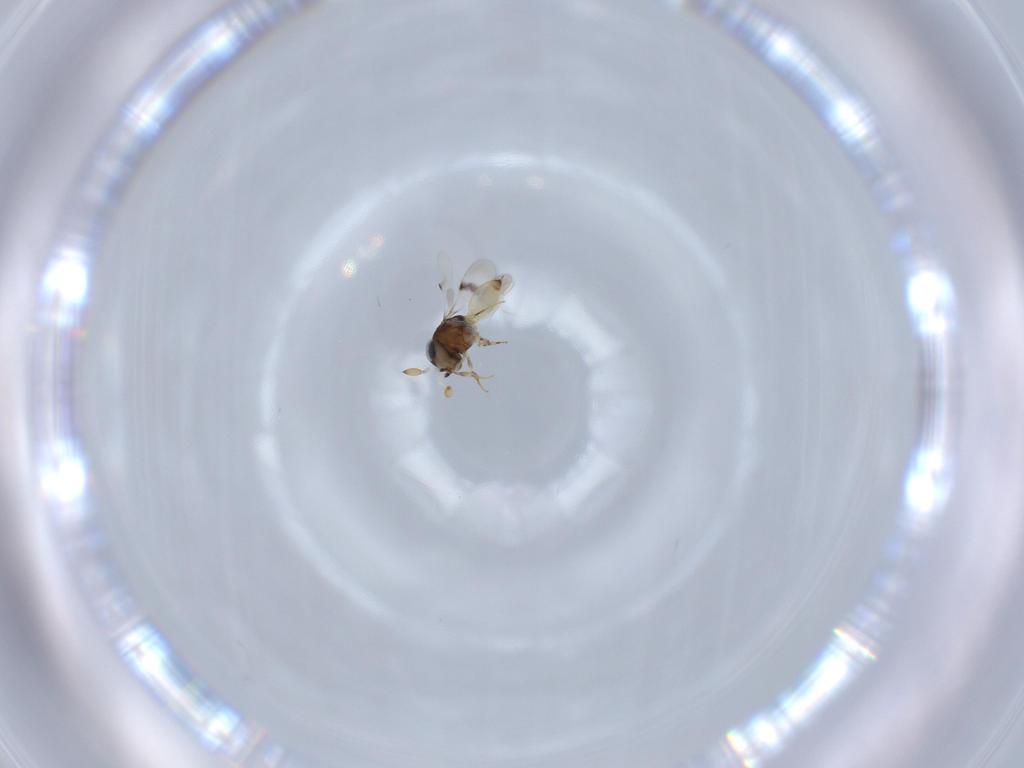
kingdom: Animalia
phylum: Arthropoda
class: Insecta
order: Hymenoptera
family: Scelionidae
